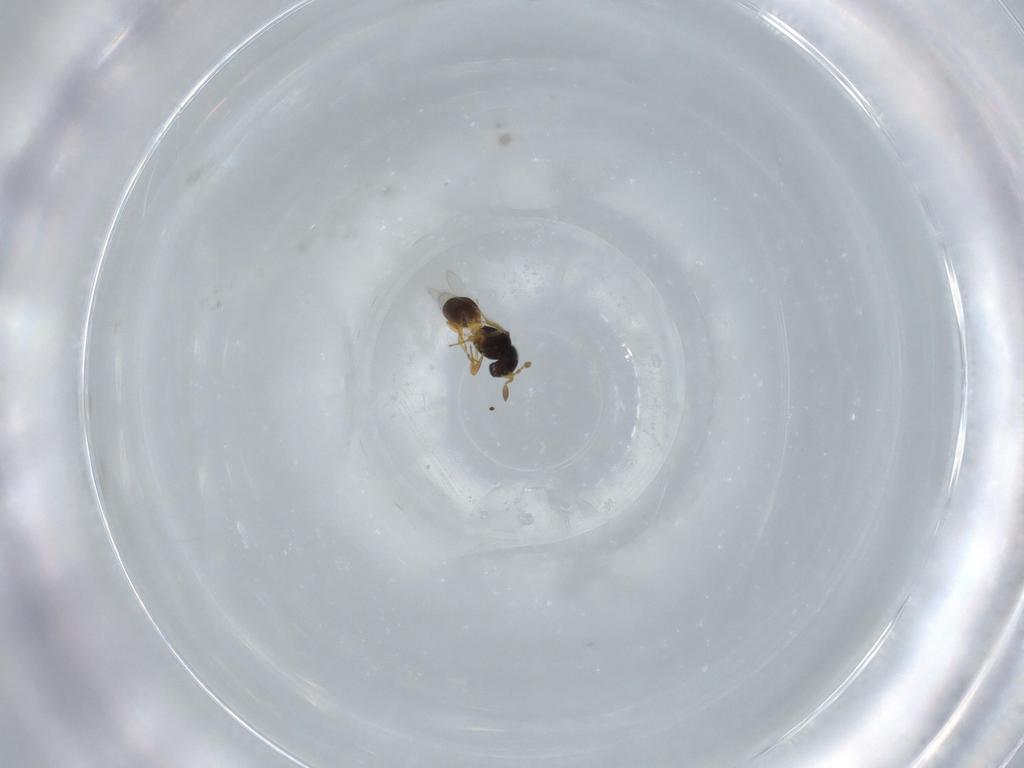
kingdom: Animalia
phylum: Arthropoda
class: Insecta
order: Hymenoptera
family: Scelionidae
